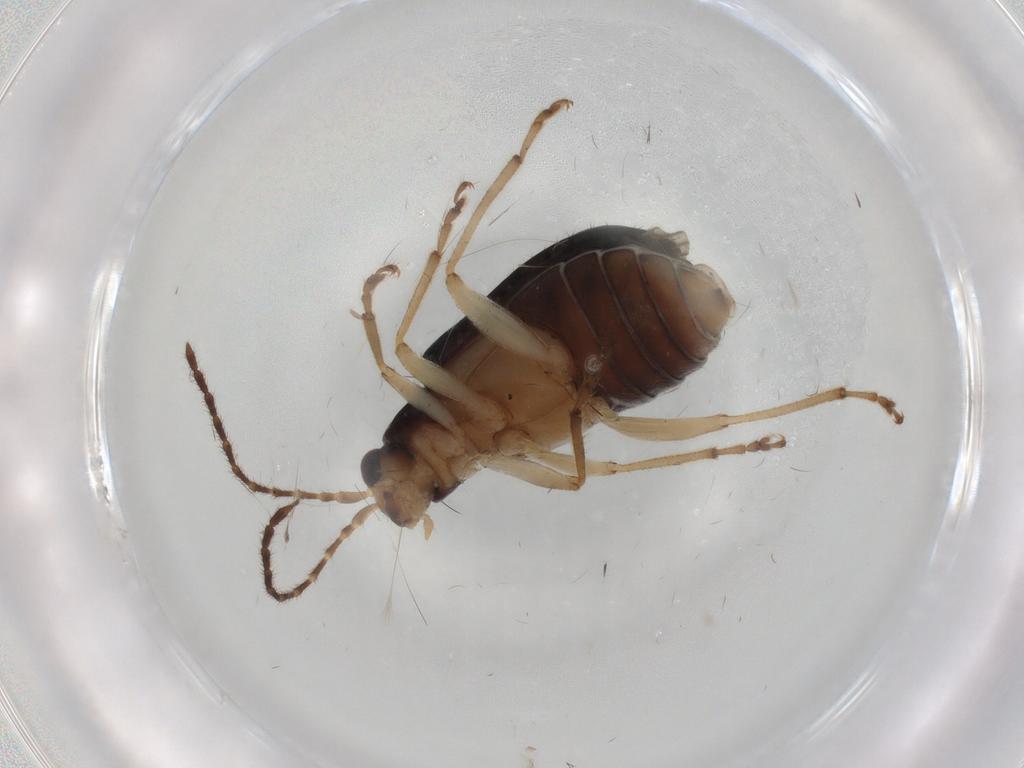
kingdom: Animalia
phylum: Arthropoda
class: Insecta
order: Coleoptera
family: Chrysomelidae
